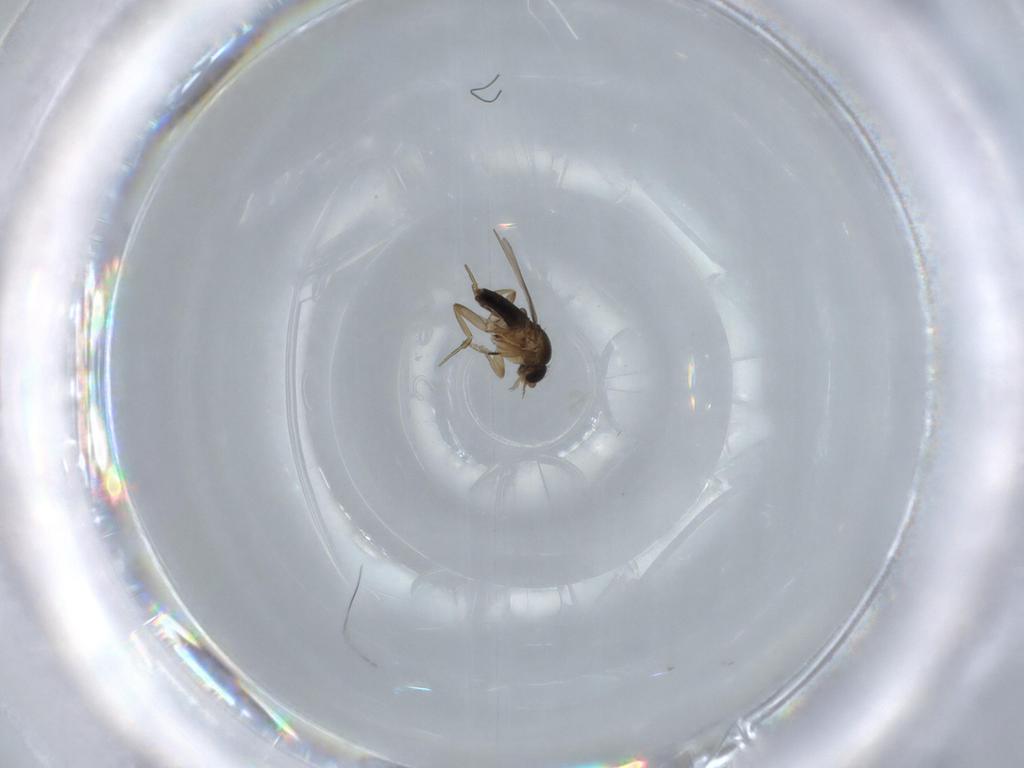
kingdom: Animalia
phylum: Arthropoda
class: Insecta
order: Diptera
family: Phoridae
